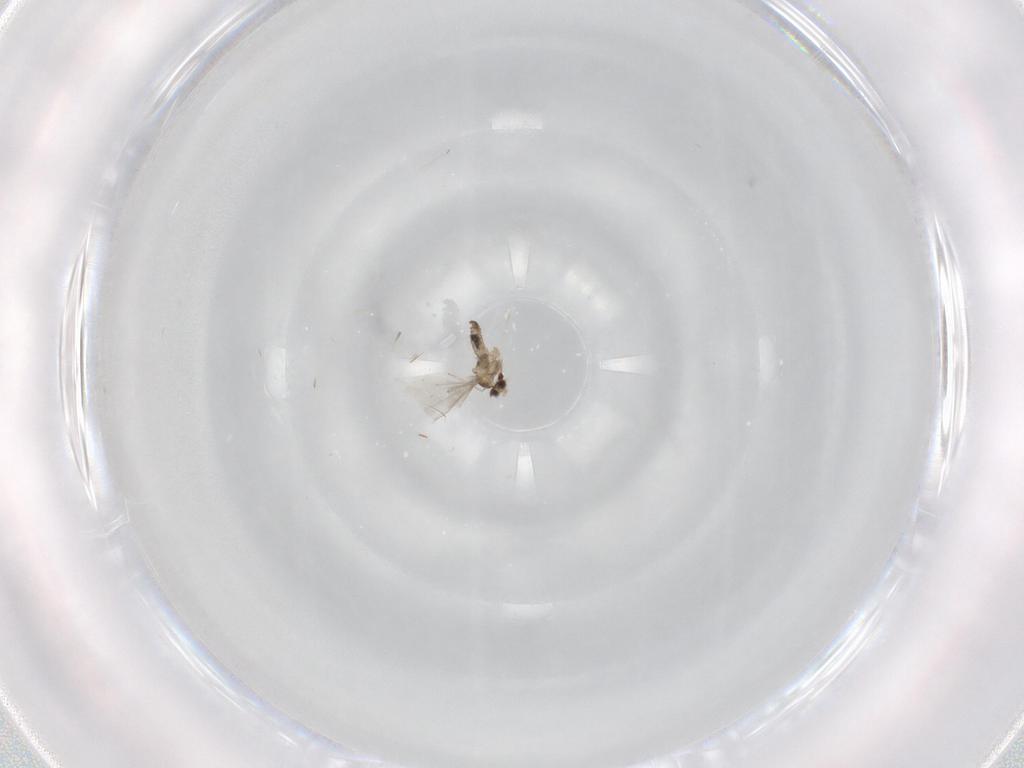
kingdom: Animalia
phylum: Arthropoda
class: Insecta
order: Diptera
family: Cecidomyiidae
